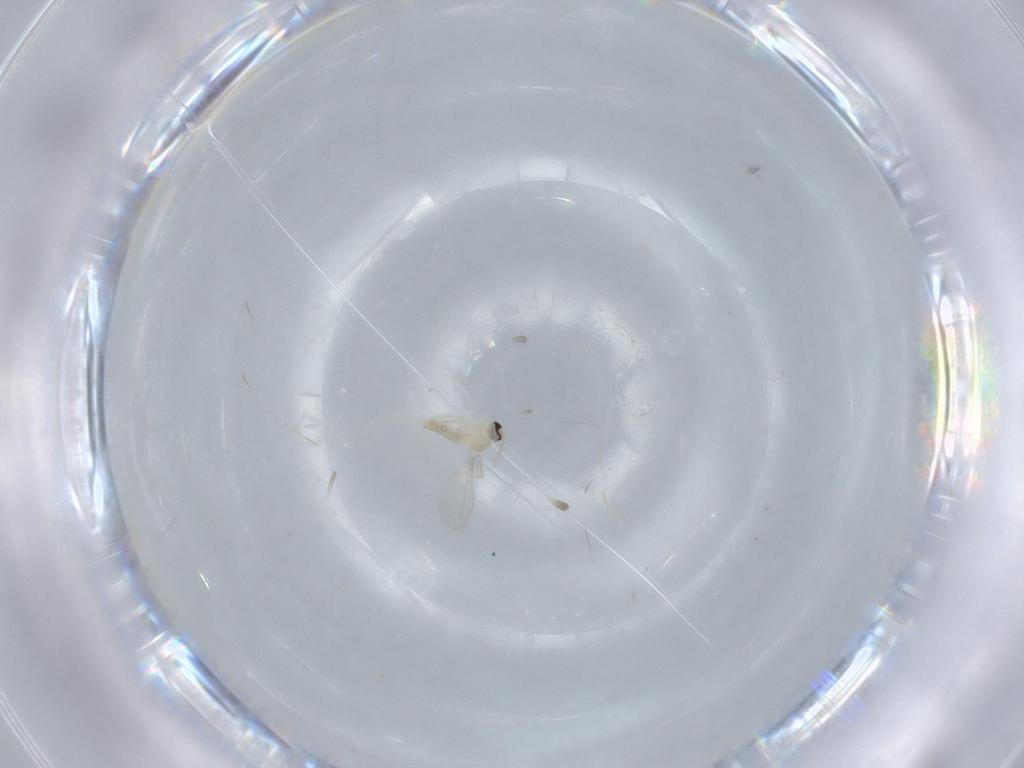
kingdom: Animalia
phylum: Arthropoda
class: Insecta
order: Diptera
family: Cecidomyiidae
